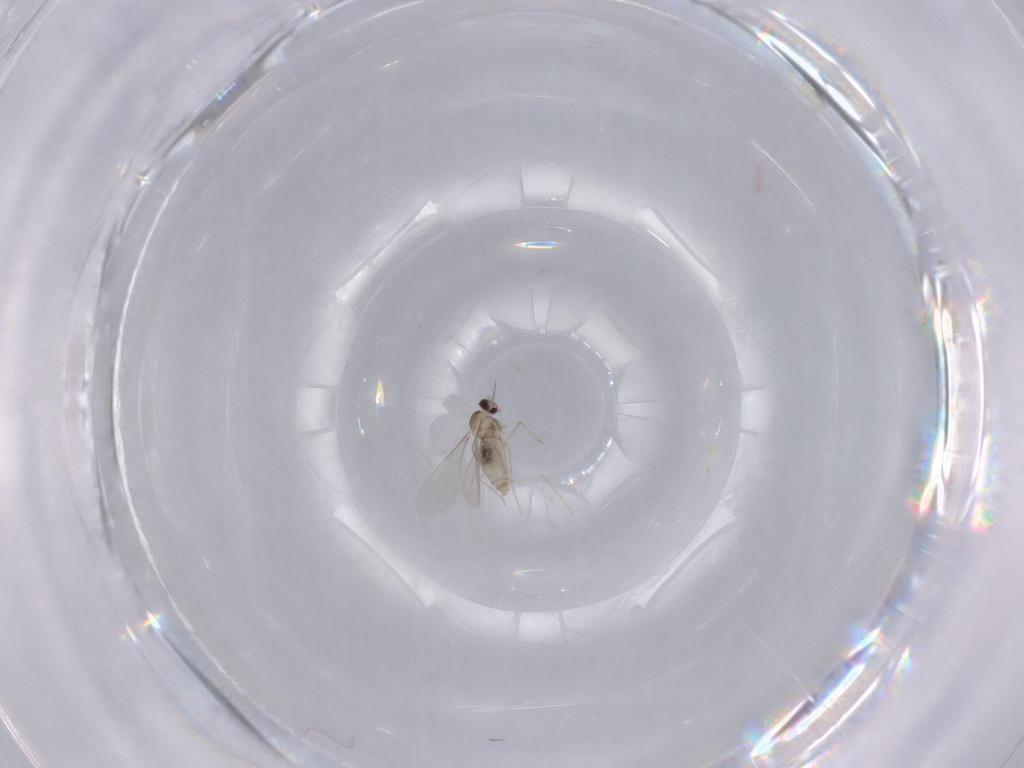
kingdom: Animalia
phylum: Arthropoda
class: Insecta
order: Diptera
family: Cecidomyiidae
